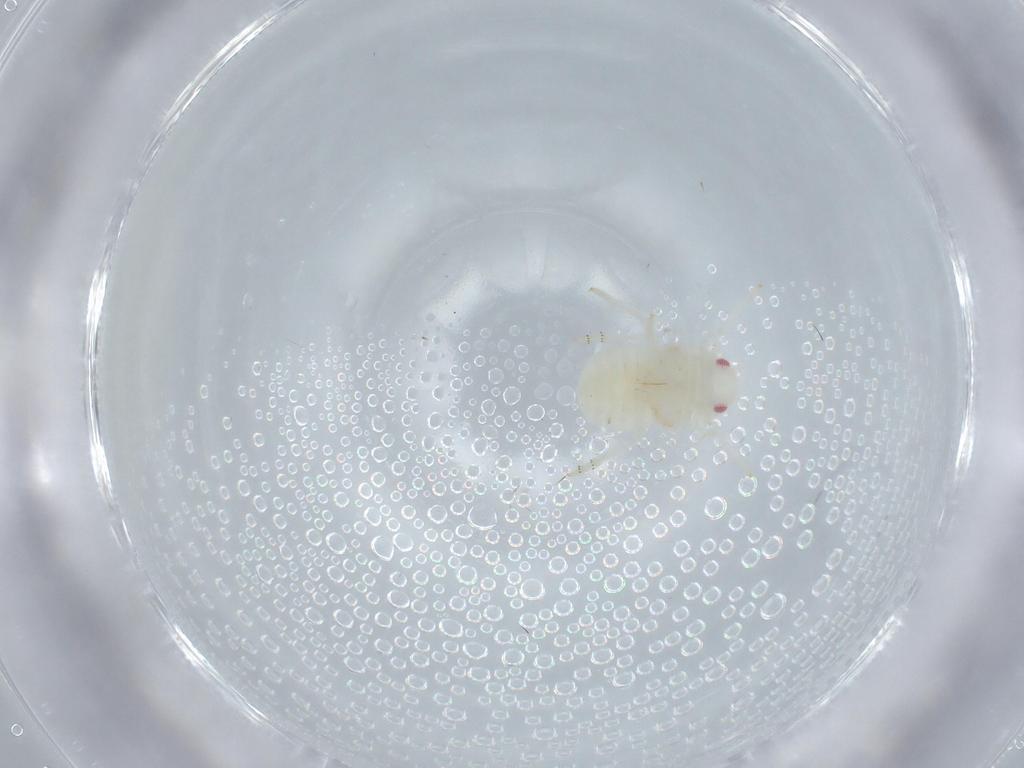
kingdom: Animalia
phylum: Arthropoda
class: Insecta
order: Hemiptera
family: Flatidae
